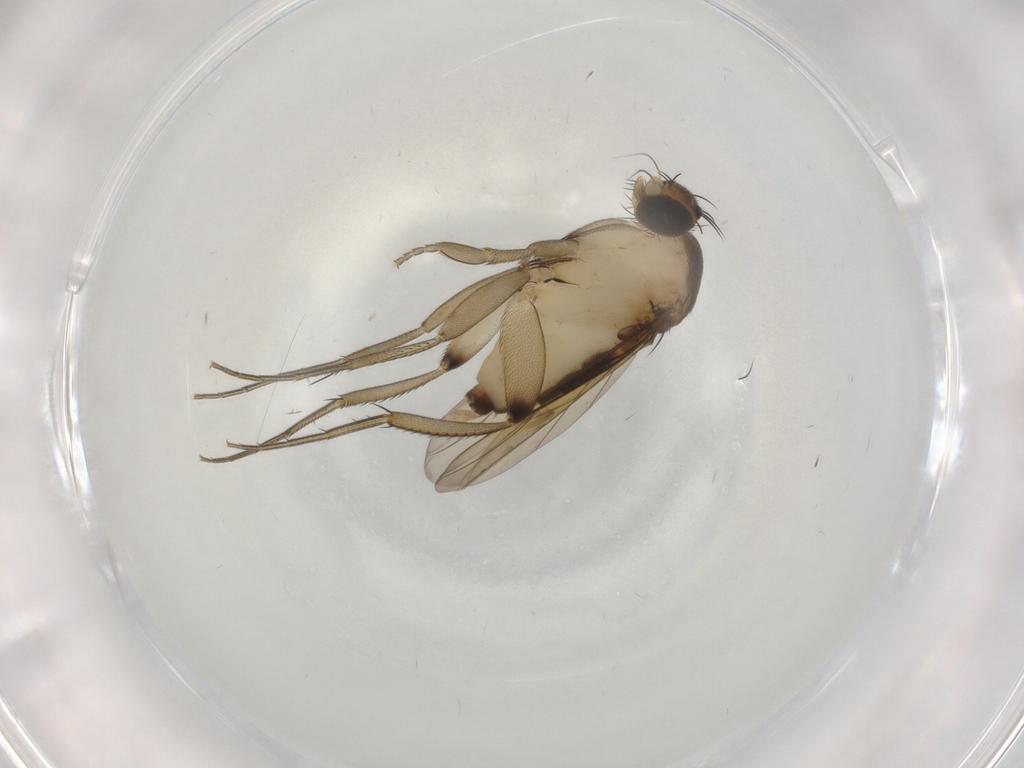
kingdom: Animalia
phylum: Arthropoda
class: Insecta
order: Diptera
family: Phoridae
